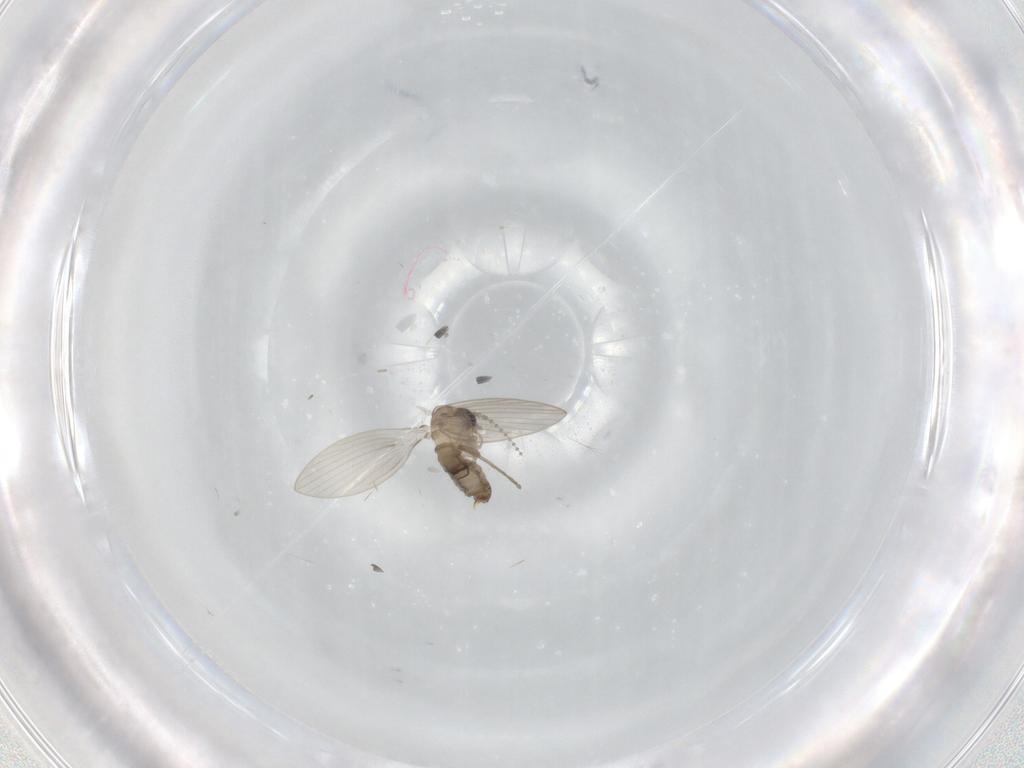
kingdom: Animalia
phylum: Arthropoda
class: Insecta
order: Diptera
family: Psychodidae
